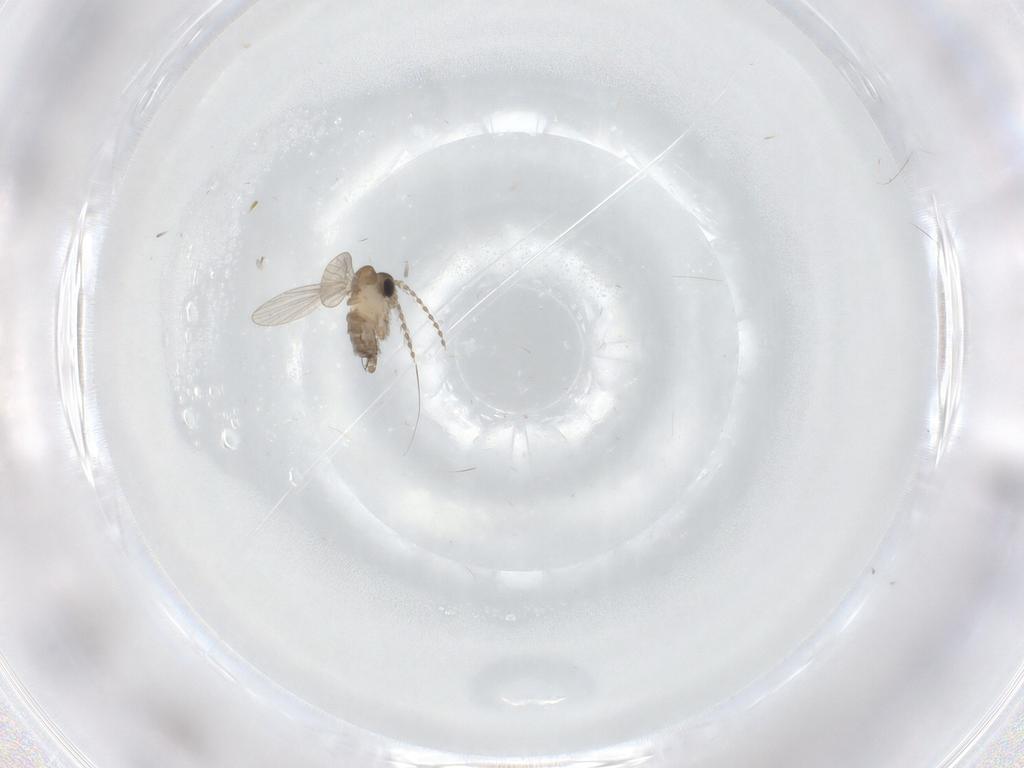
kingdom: Animalia
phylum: Arthropoda
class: Insecta
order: Diptera
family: Psychodidae
